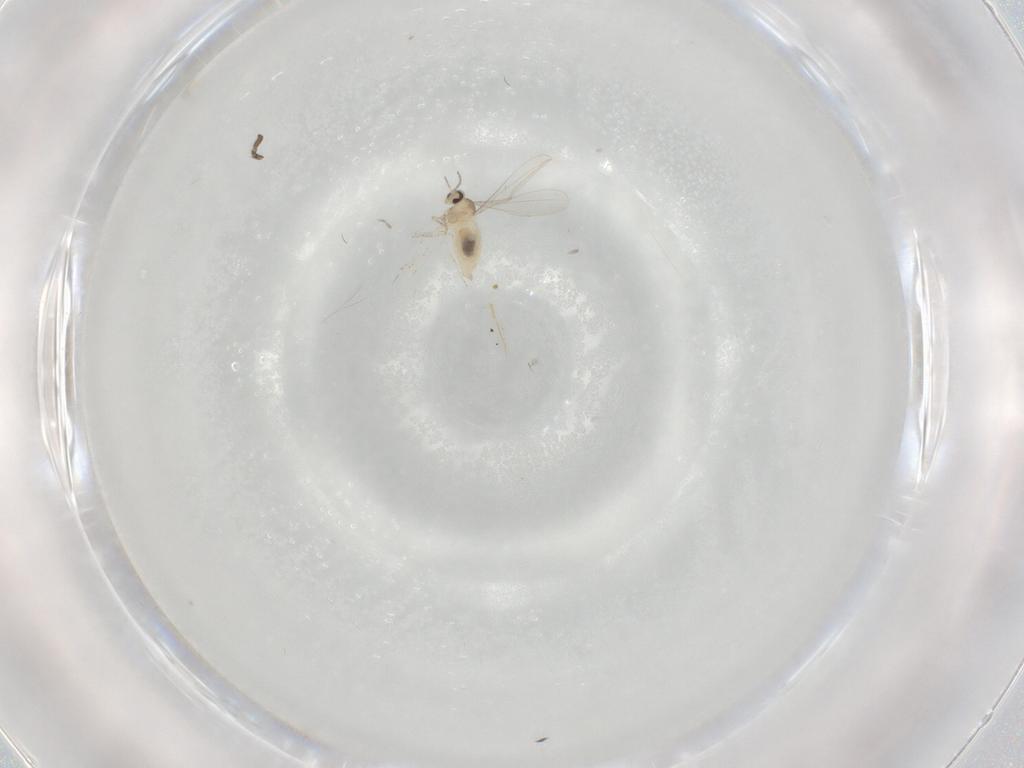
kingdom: Animalia
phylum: Arthropoda
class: Insecta
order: Diptera
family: Cecidomyiidae
